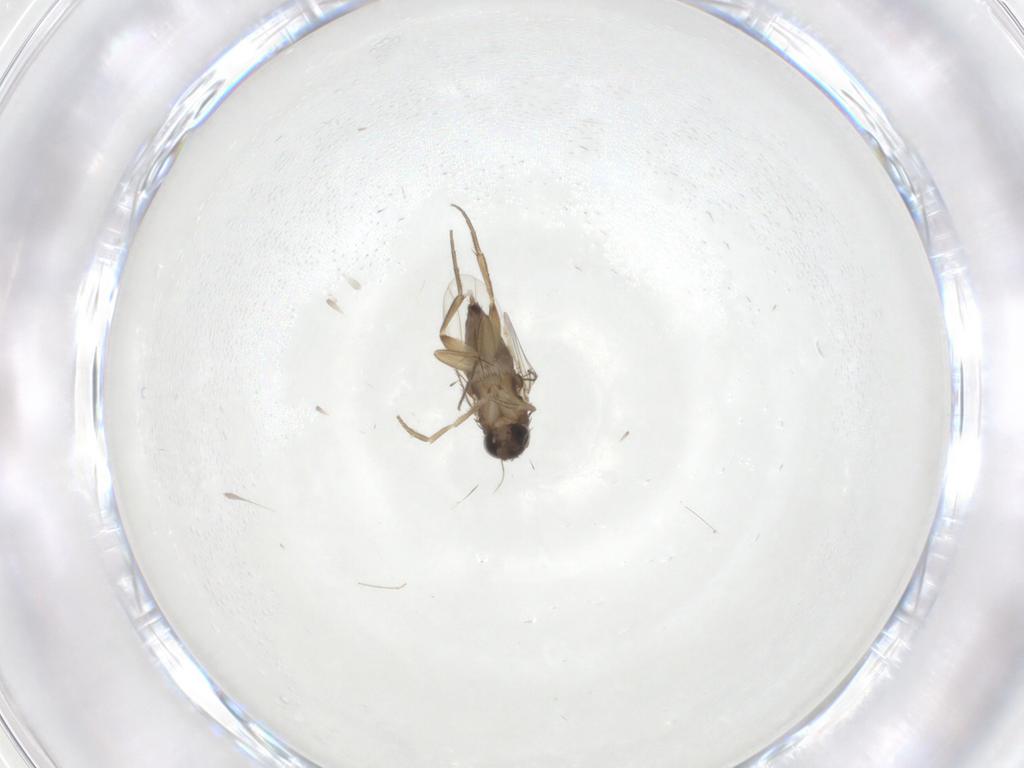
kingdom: Animalia
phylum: Arthropoda
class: Insecta
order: Diptera
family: Phoridae
